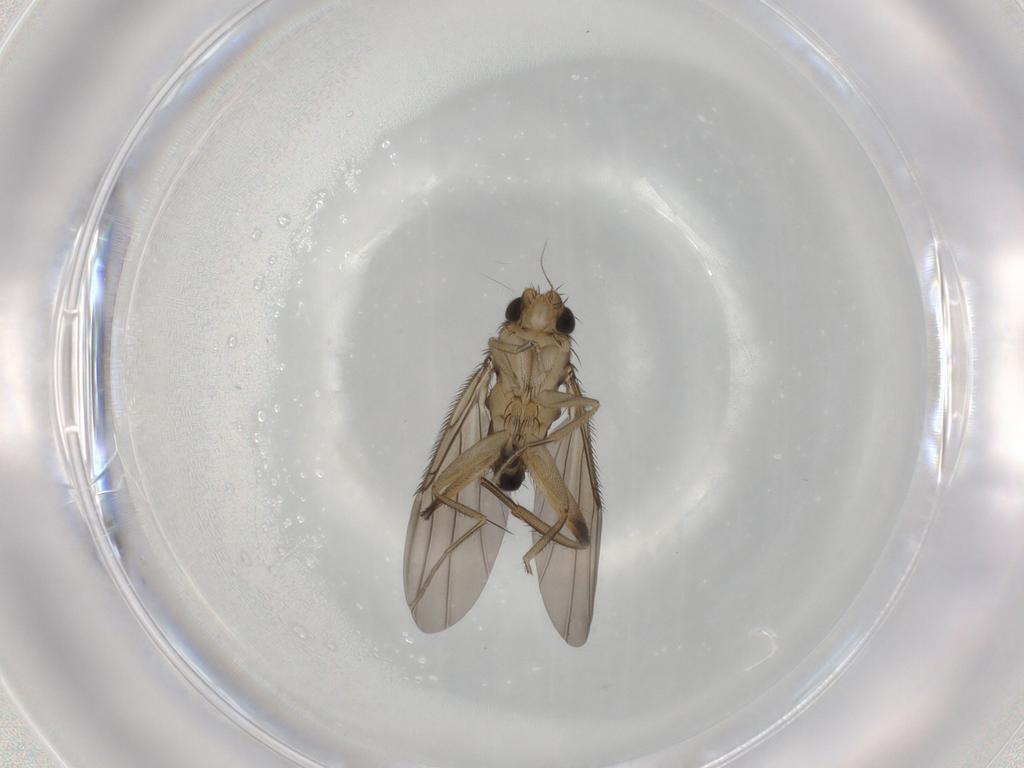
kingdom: Animalia
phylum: Arthropoda
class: Insecta
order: Diptera
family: Phoridae
